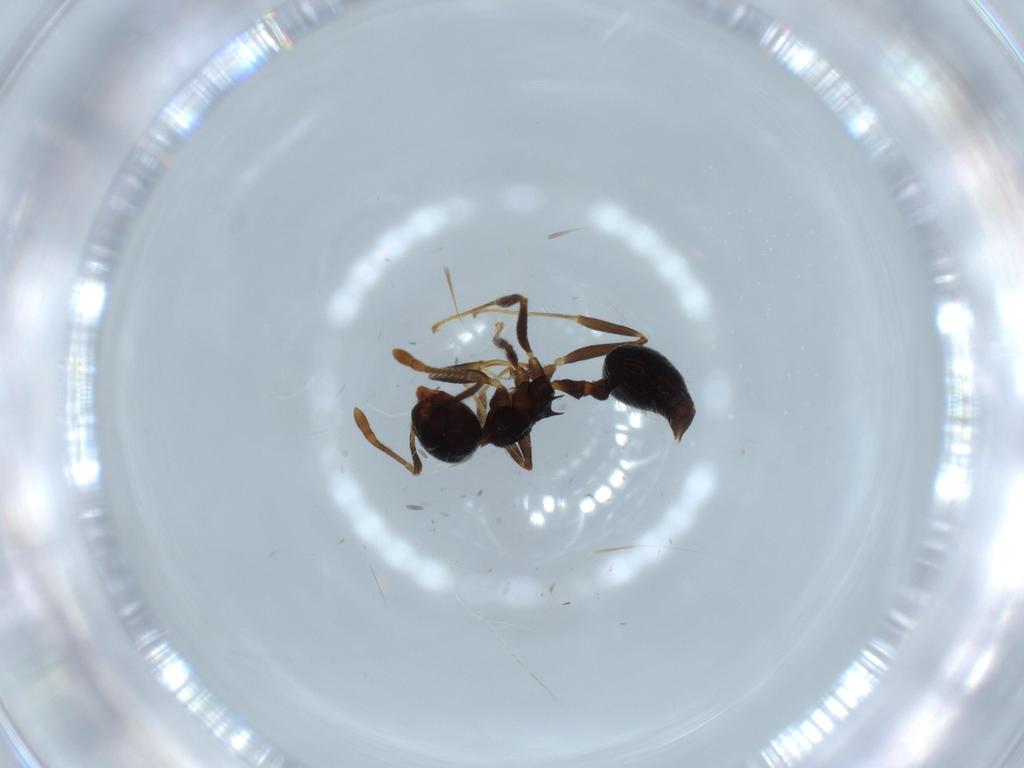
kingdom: Animalia
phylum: Arthropoda
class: Insecta
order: Hymenoptera
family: Formicidae
